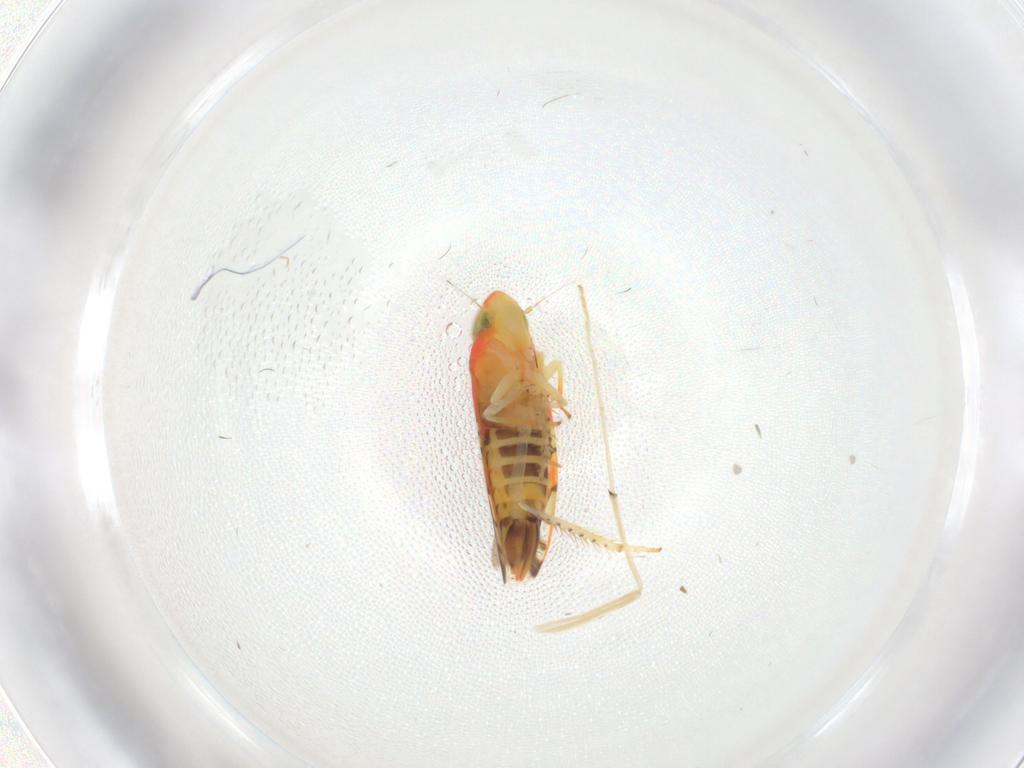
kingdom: Animalia
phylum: Arthropoda
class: Insecta
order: Hemiptera
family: Cicadellidae
